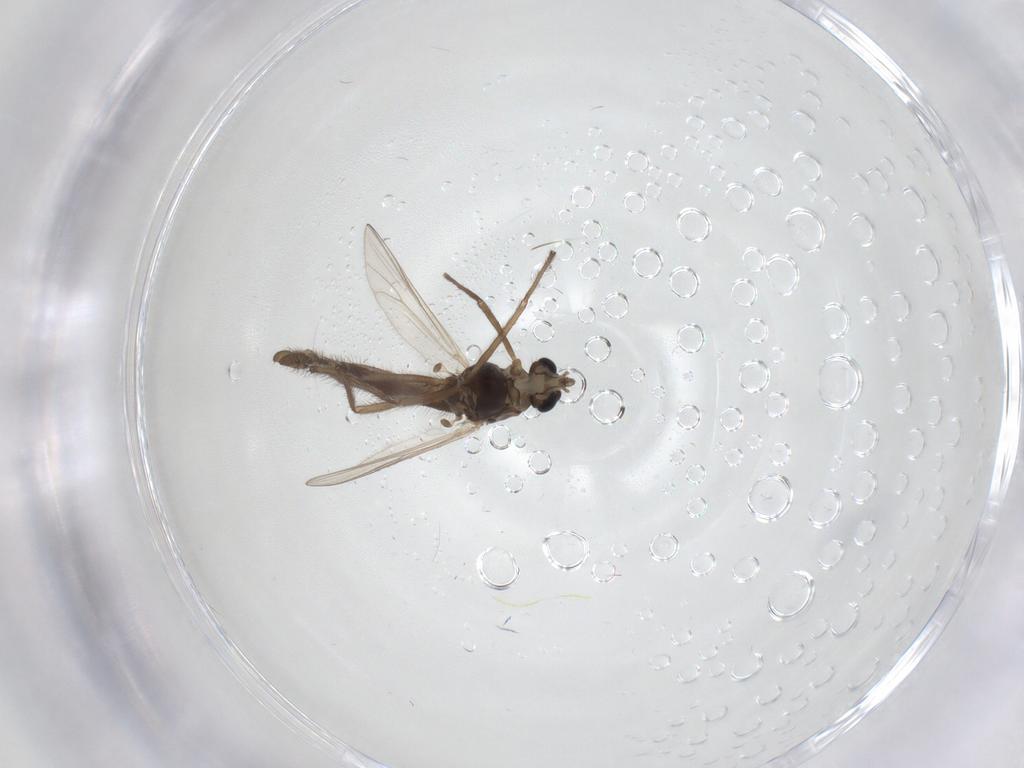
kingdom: Animalia
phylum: Arthropoda
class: Insecta
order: Diptera
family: Chironomidae
